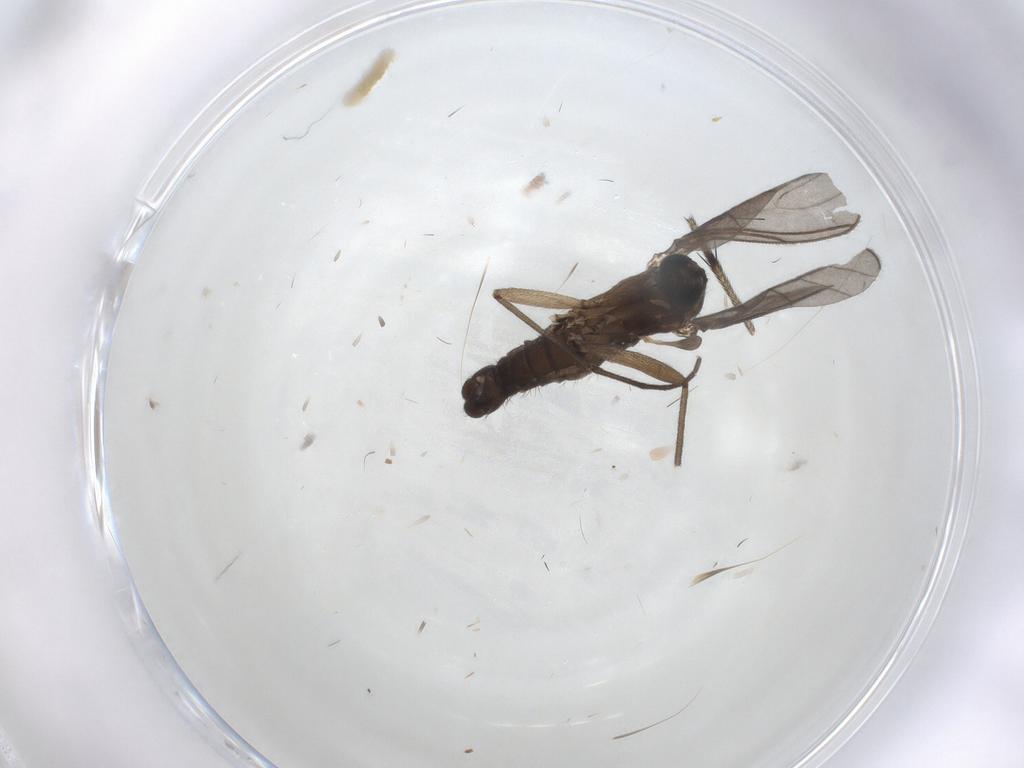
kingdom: Animalia
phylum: Arthropoda
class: Insecta
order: Diptera
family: Sciaridae
